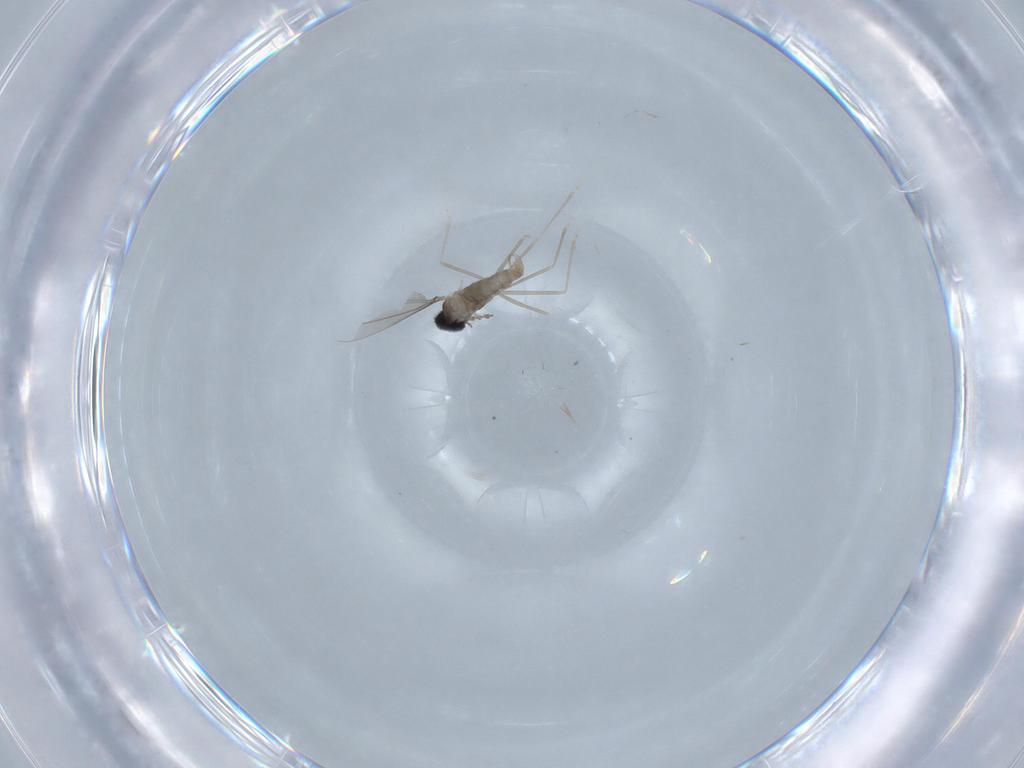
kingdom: Animalia
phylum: Arthropoda
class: Insecta
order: Diptera
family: Cecidomyiidae
